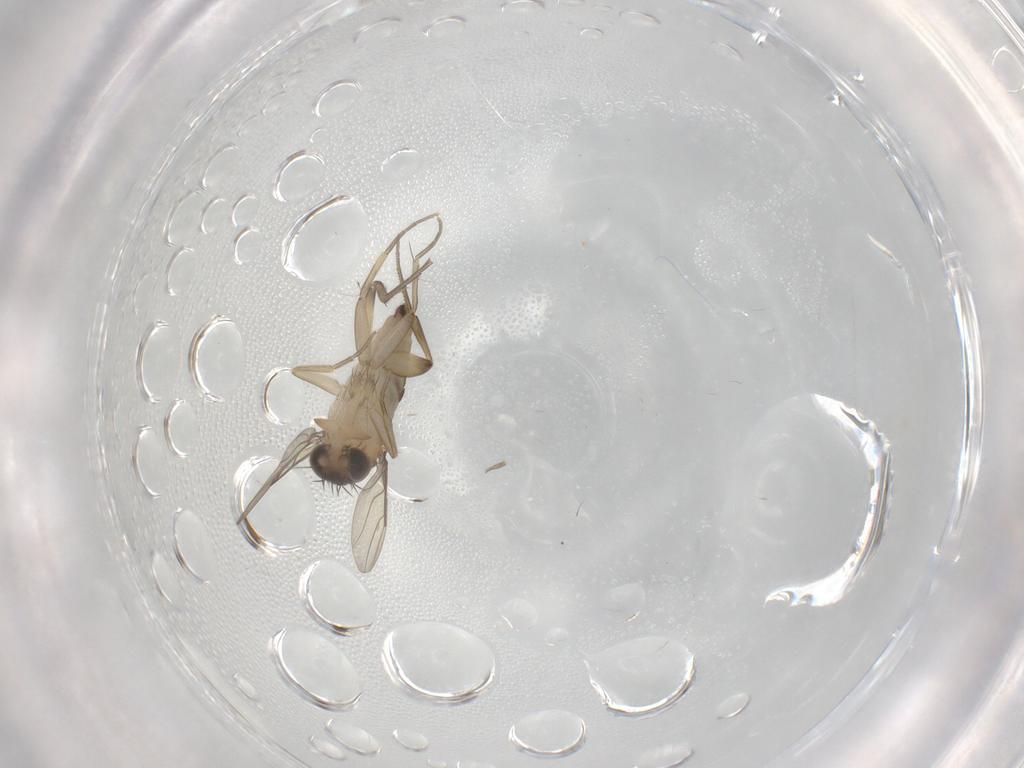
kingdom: Animalia
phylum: Arthropoda
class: Insecta
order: Diptera
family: Phoridae
